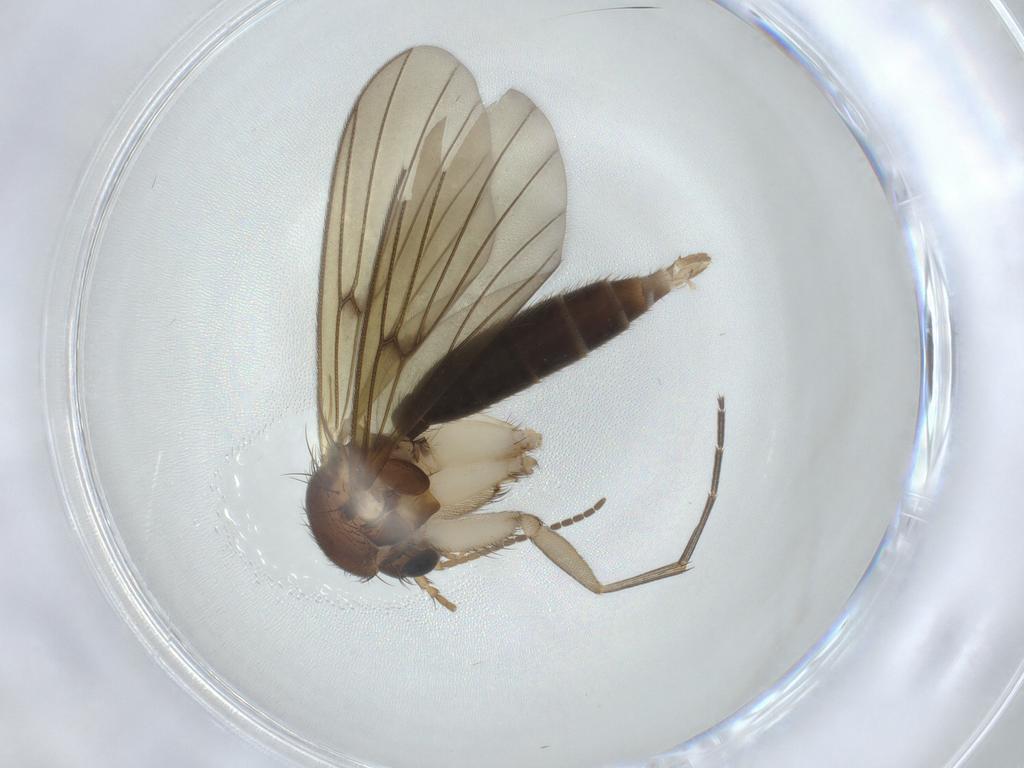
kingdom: Animalia
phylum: Arthropoda
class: Insecta
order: Diptera
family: Mycetophilidae
